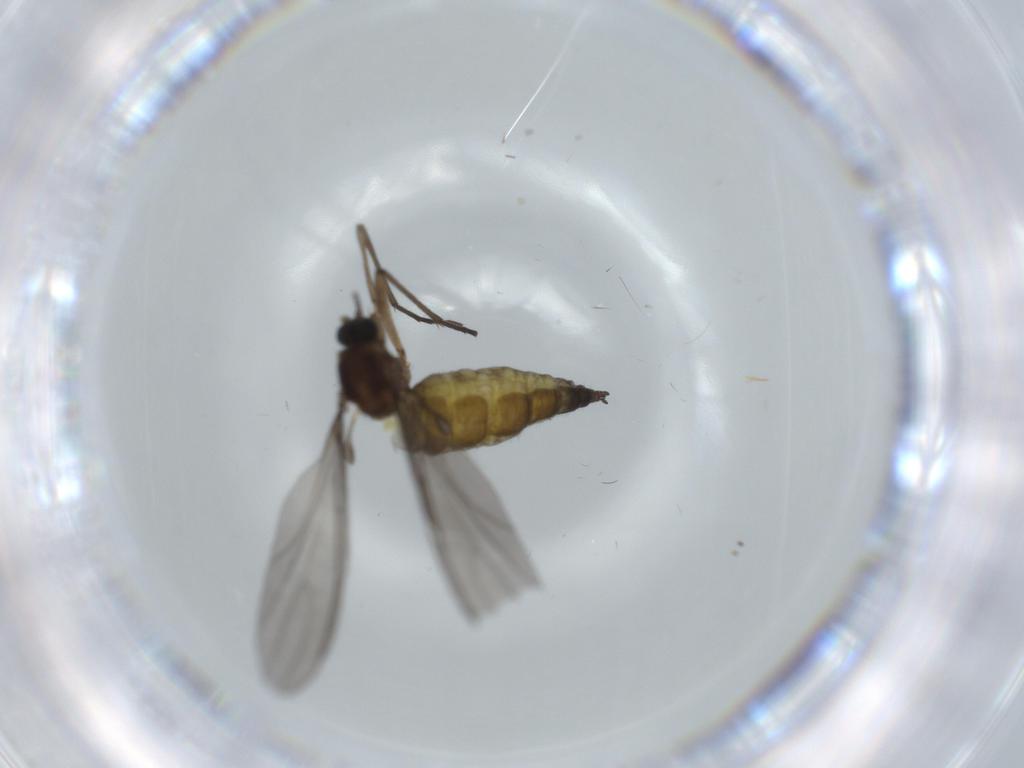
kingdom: Animalia
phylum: Arthropoda
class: Insecta
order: Diptera
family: Sciaridae
